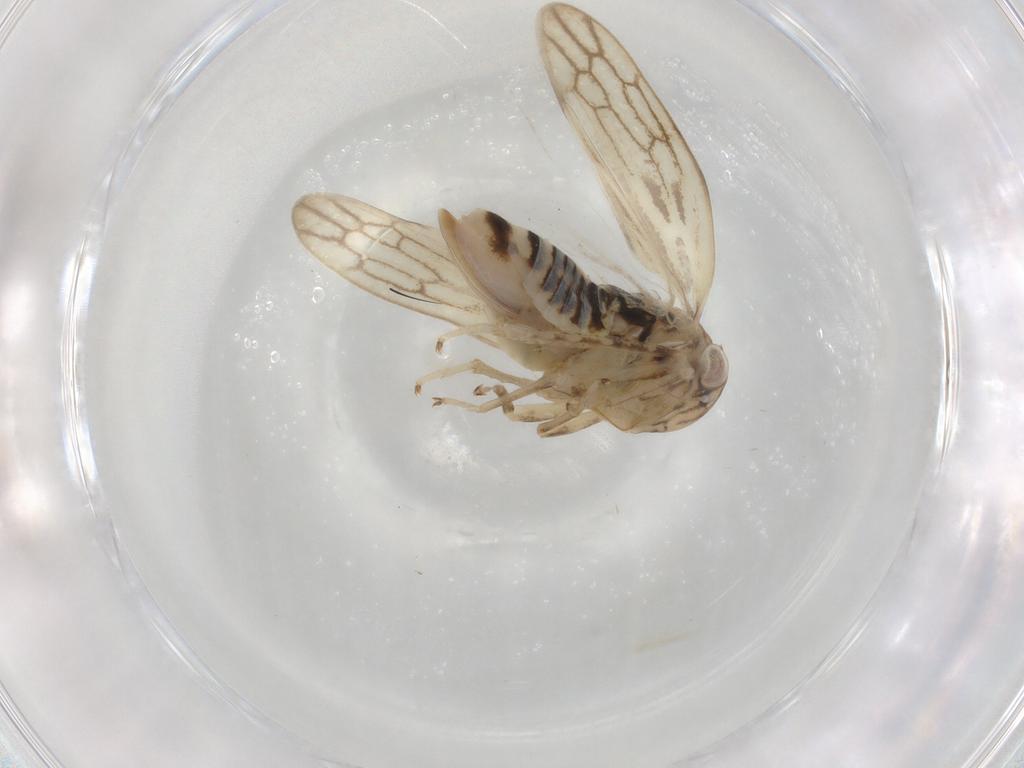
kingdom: Animalia
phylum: Arthropoda
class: Insecta
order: Hemiptera
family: Cicadellidae
